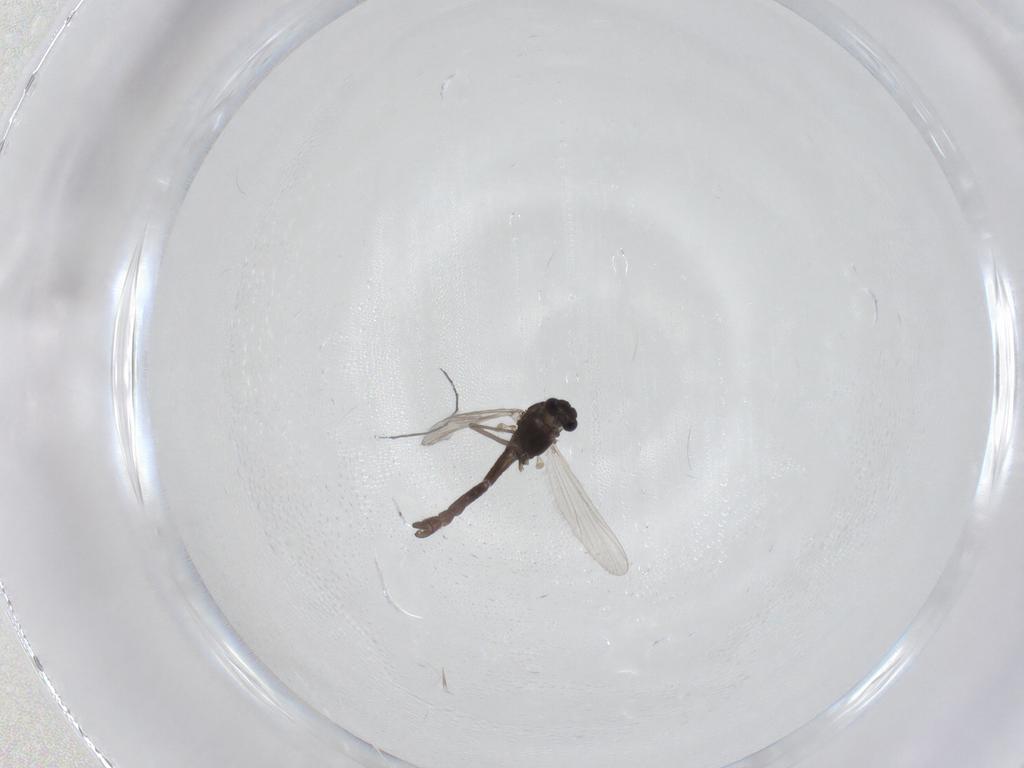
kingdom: Animalia
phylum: Arthropoda
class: Insecta
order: Diptera
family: Chironomidae
